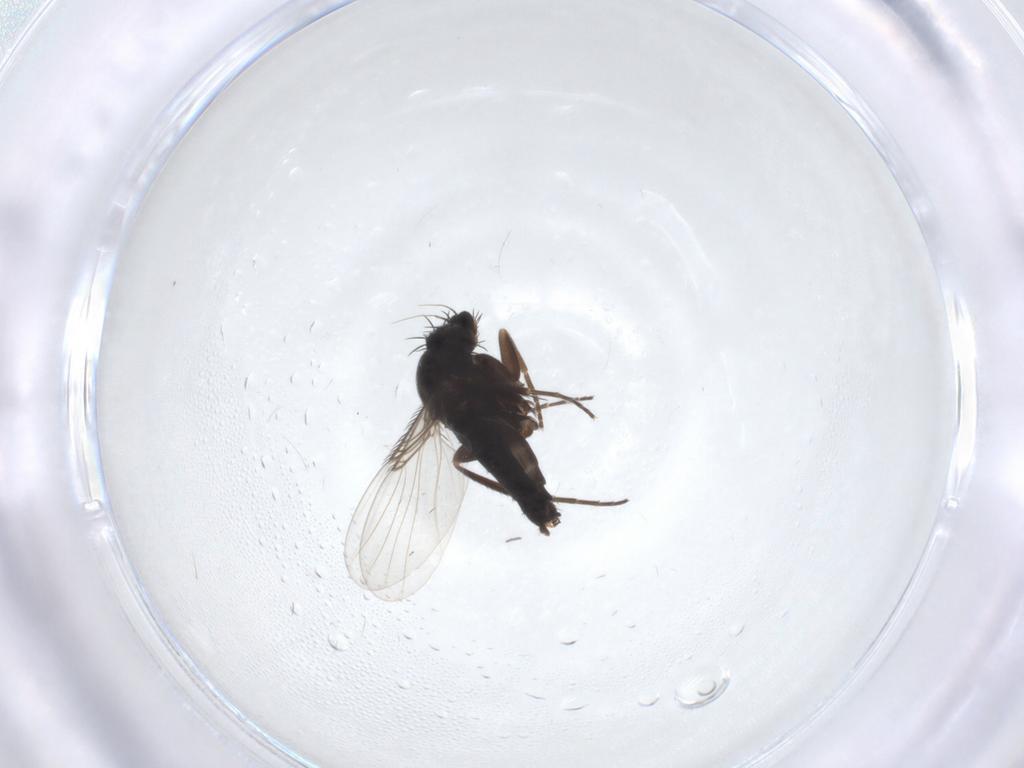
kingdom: Animalia
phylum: Arthropoda
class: Insecta
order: Diptera
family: Phoridae
